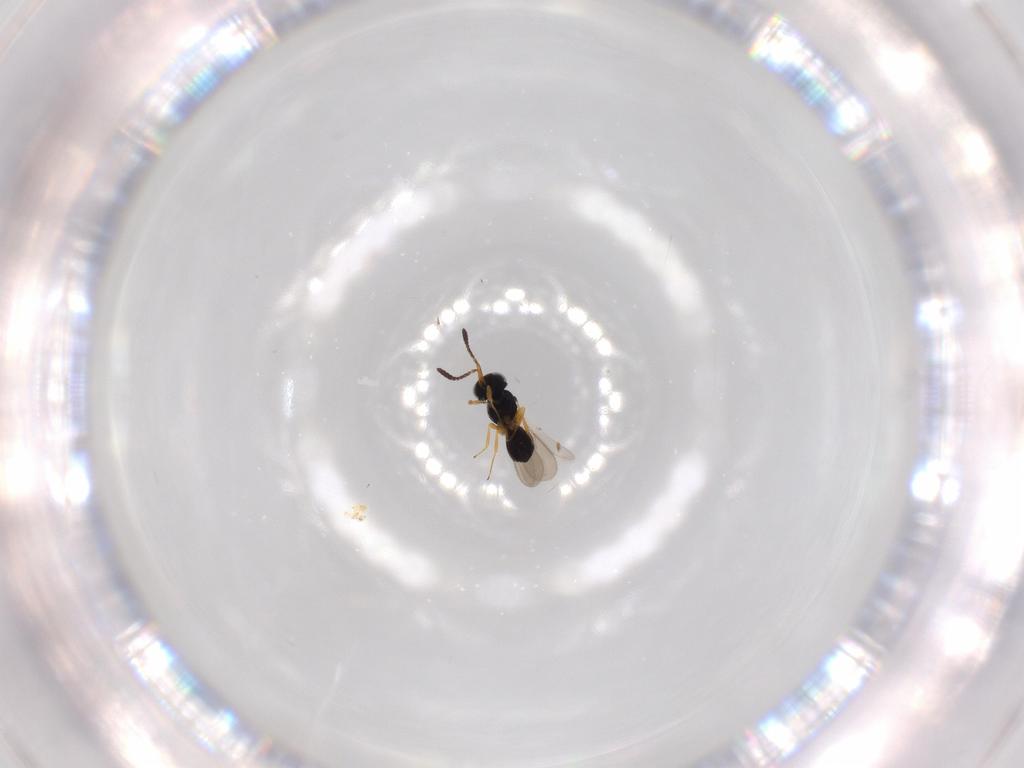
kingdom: Animalia
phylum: Arthropoda
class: Insecta
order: Hymenoptera
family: Scelionidae
